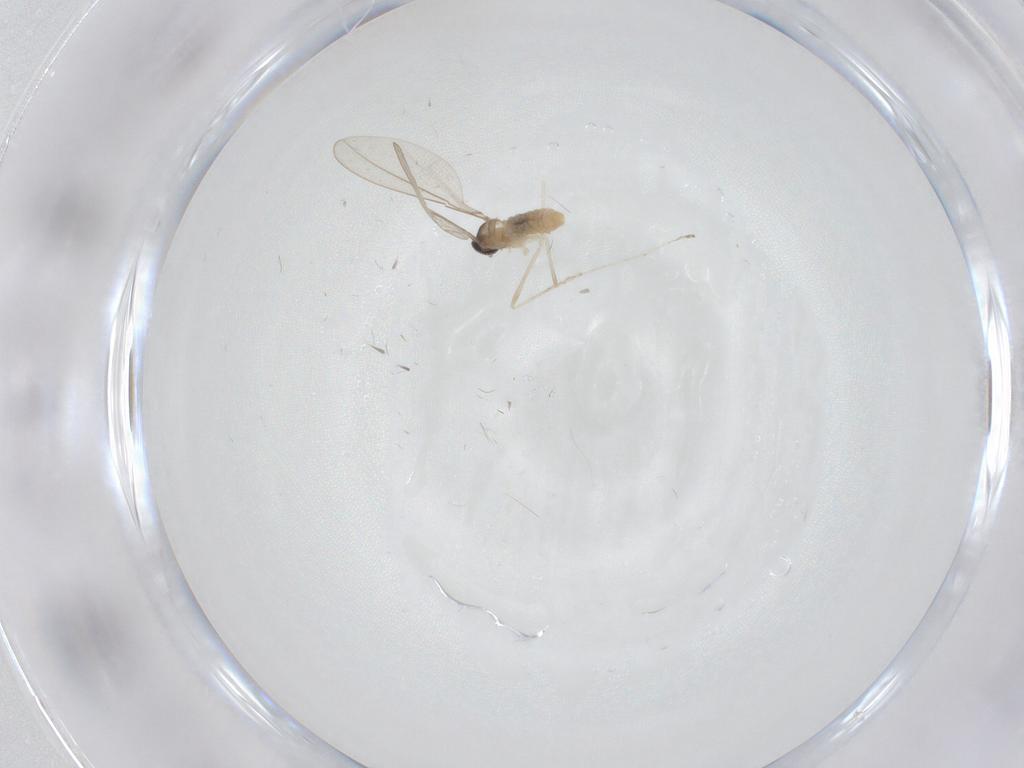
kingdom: Animalia
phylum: Arthropoda
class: Insecta
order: Diptera
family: Cecidomyiidae
